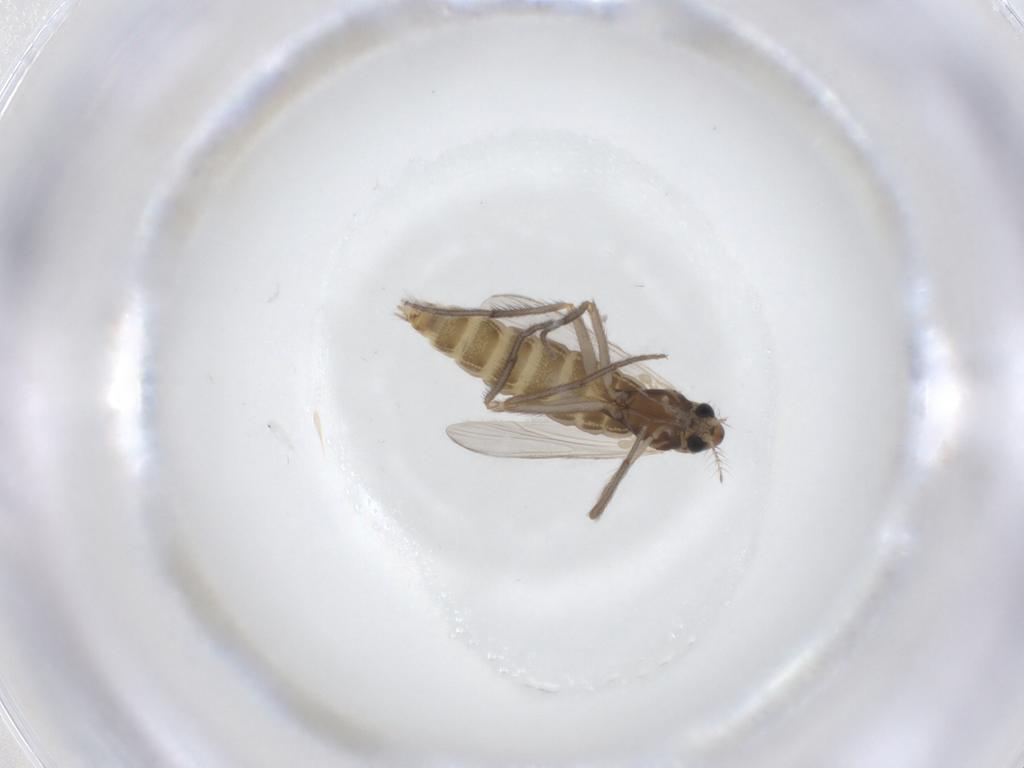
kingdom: Animalia
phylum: Arthropoda
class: Insecta
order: Diptera
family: Chironomidae
